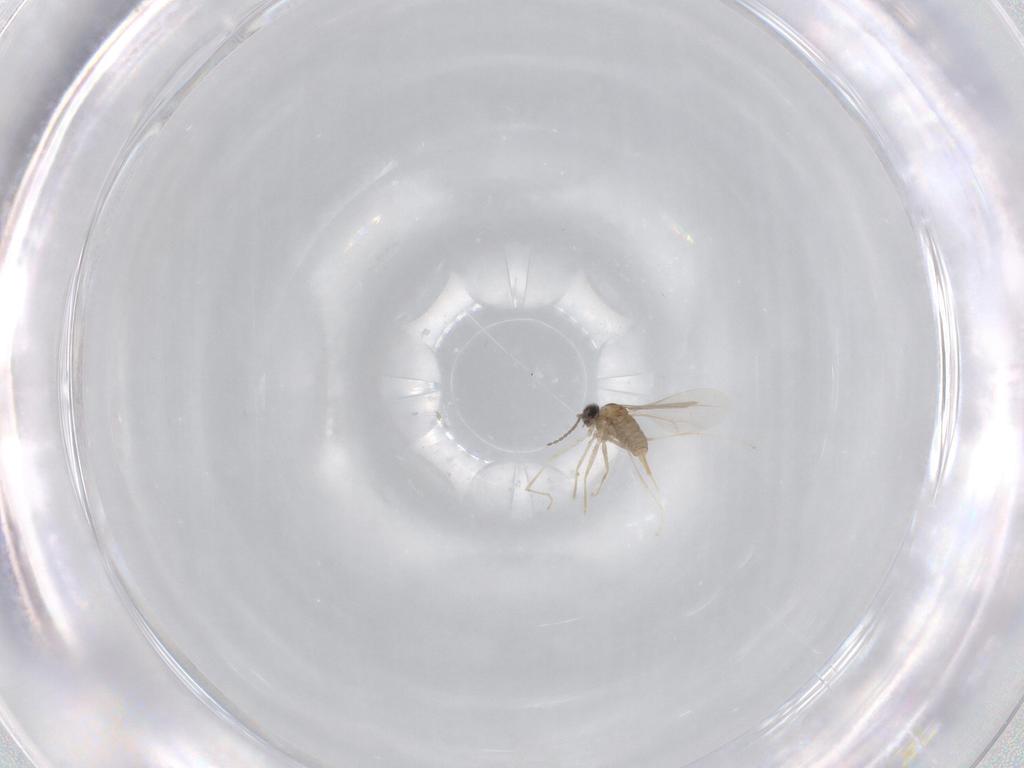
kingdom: Animalia
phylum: Arthropoda
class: Insecta
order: Diptera
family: Cecidomyiidae
